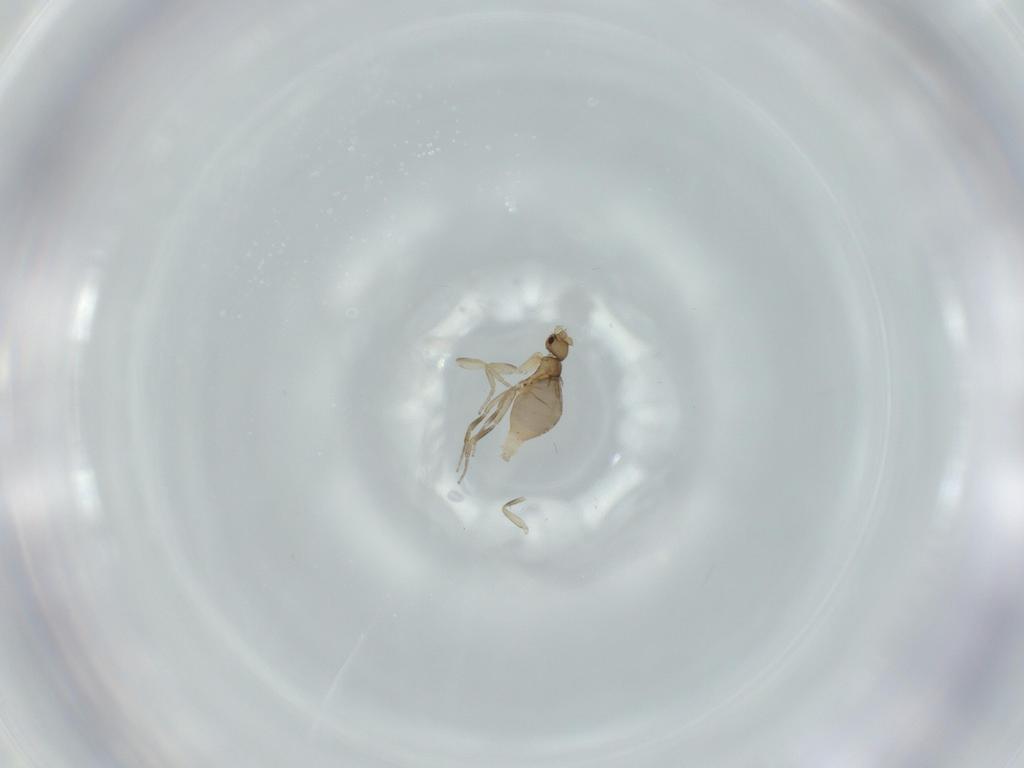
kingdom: Animalia
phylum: Arthropoda
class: Insecta
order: Diptera
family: Phoridae
